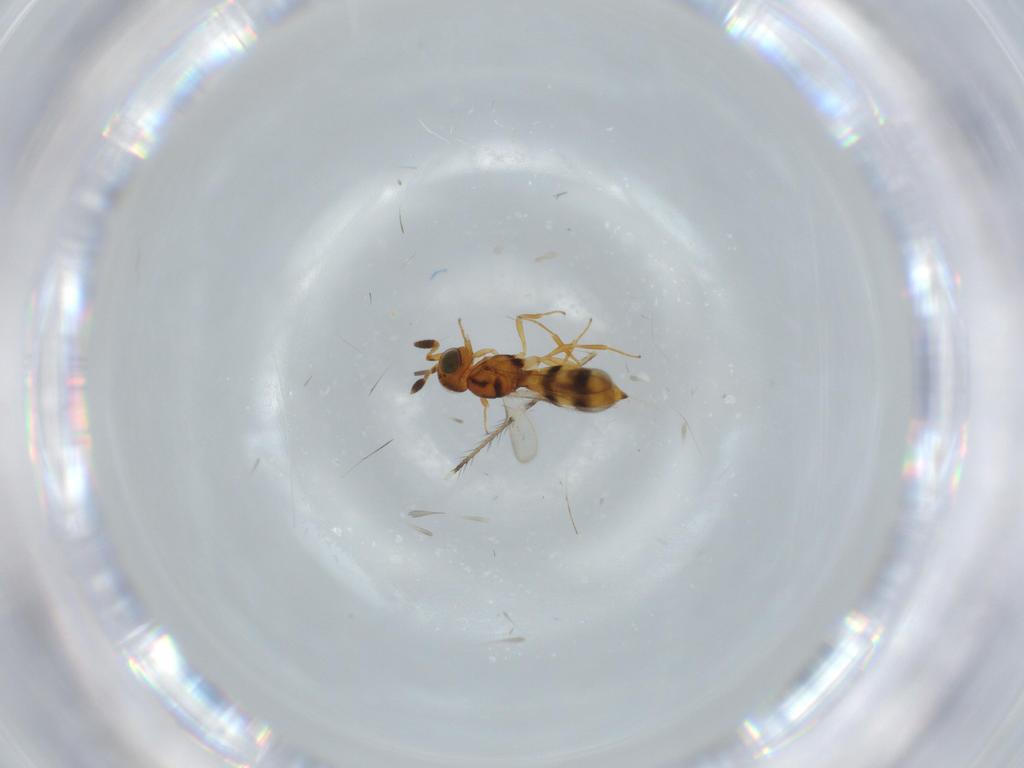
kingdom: Animalia
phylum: Arthropoda
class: Insecta
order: Hymenoptera
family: Scelionidae
